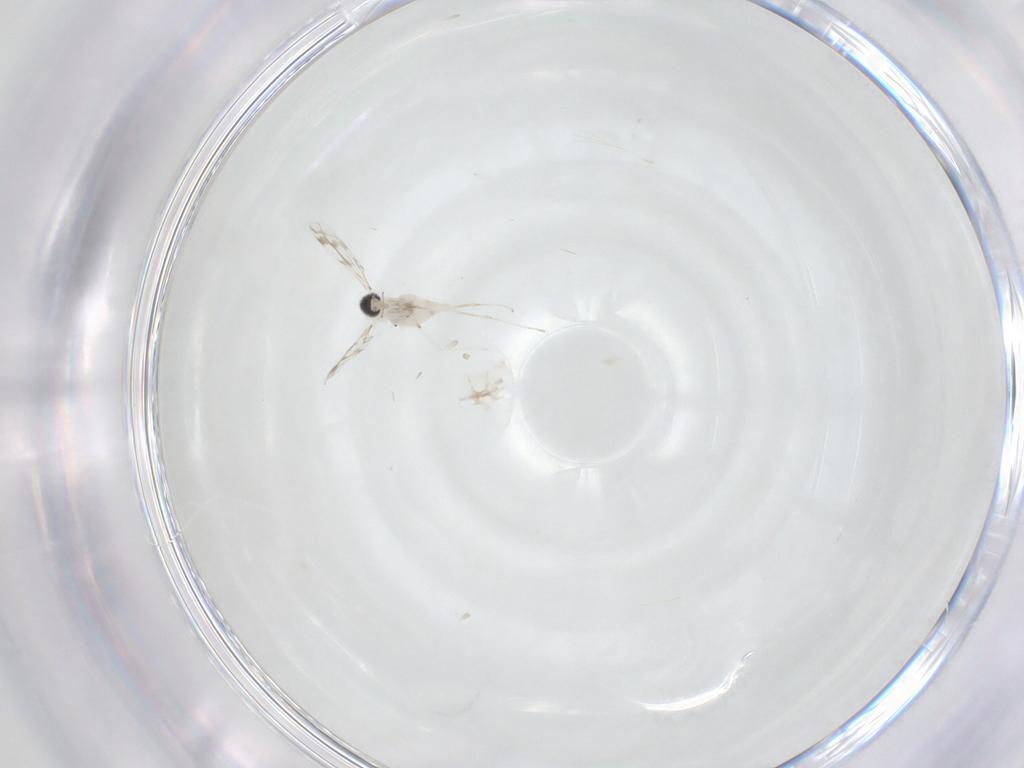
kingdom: Animalia
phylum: Arthropoda
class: Insecta
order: Diptera
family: Cecidomyiidae
